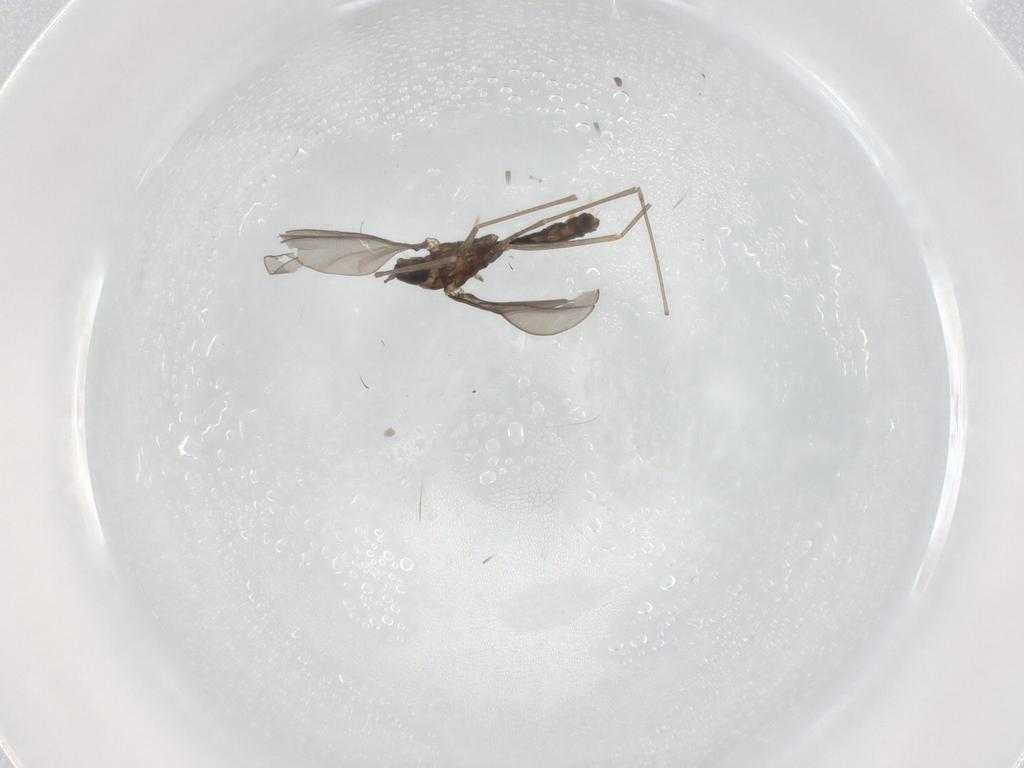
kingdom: Animalia
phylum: Arthropoda
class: Insecta
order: Diptera
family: Cecidomyiidae
